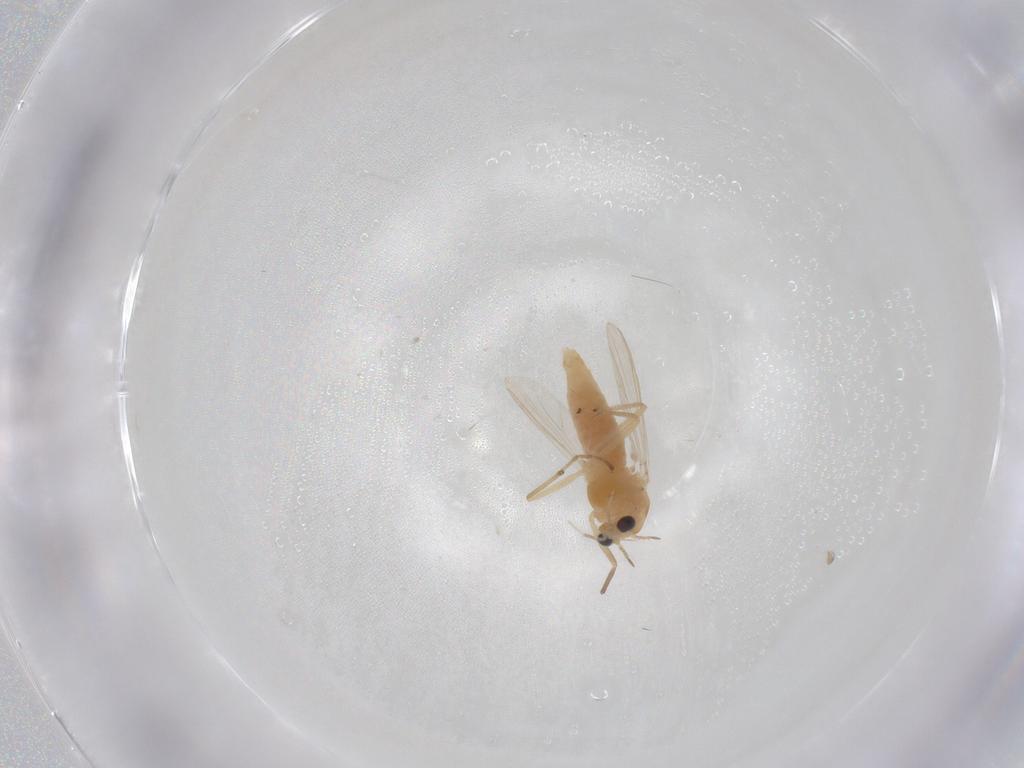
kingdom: Animalia
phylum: Arthropoda
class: Insecta
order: Diptera
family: Chironomidae
